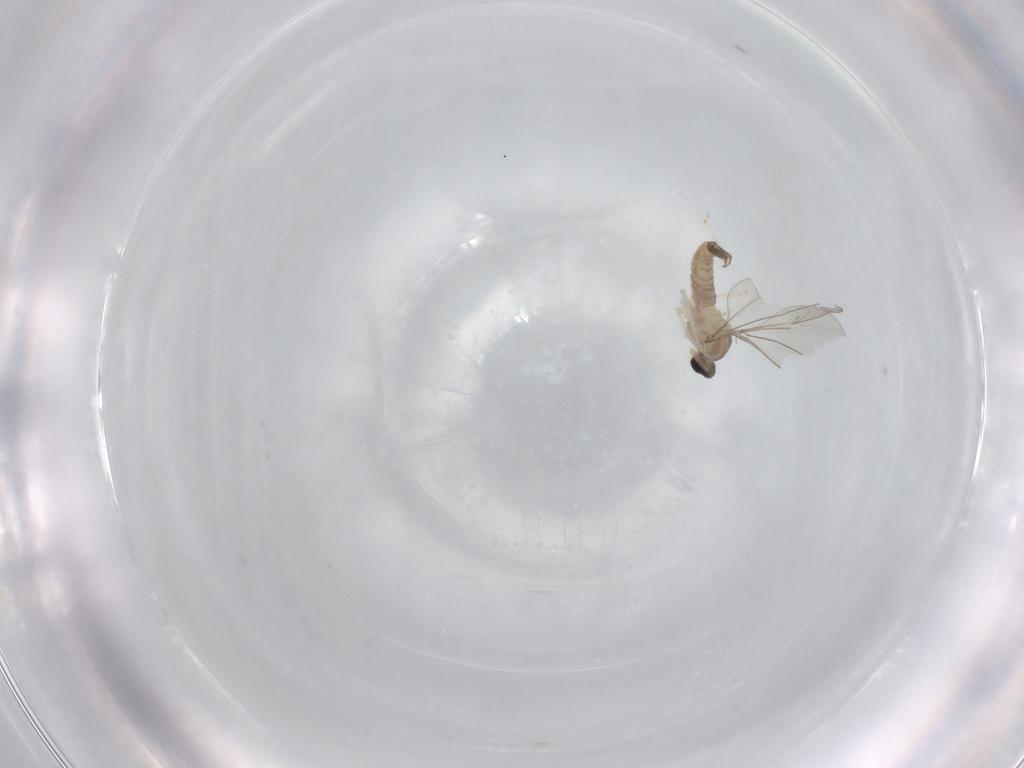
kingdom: Animalia
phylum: Arthropoda
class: Insecta
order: Diptera
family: Cecidomyiidae
